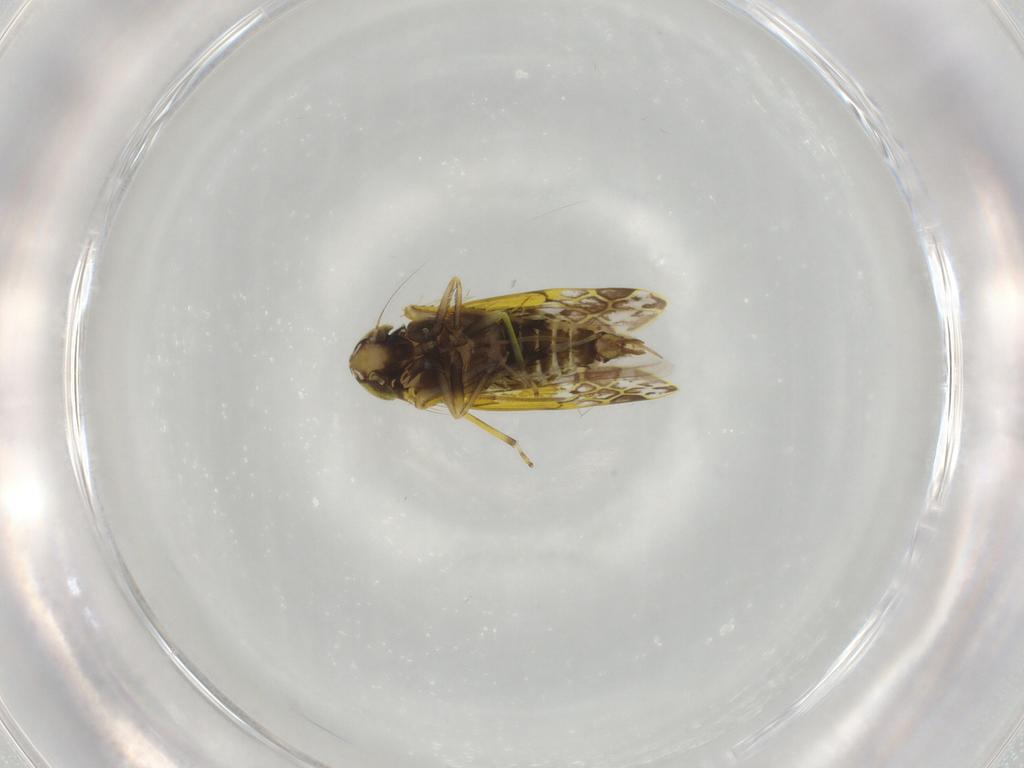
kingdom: Animalia
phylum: Arthropoda
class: Insecta
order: Hemiptera
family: Cicadellidae
